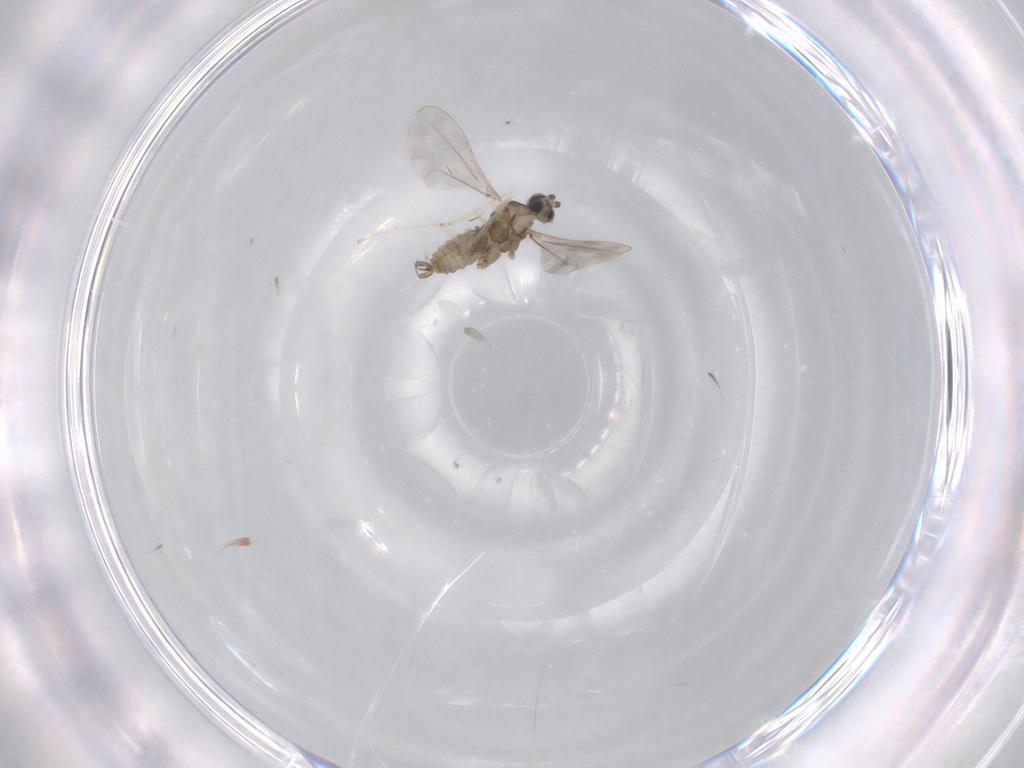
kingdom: Animalia
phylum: Arthropoda
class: Insecta
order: Diptera
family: Cecidomyiidae
